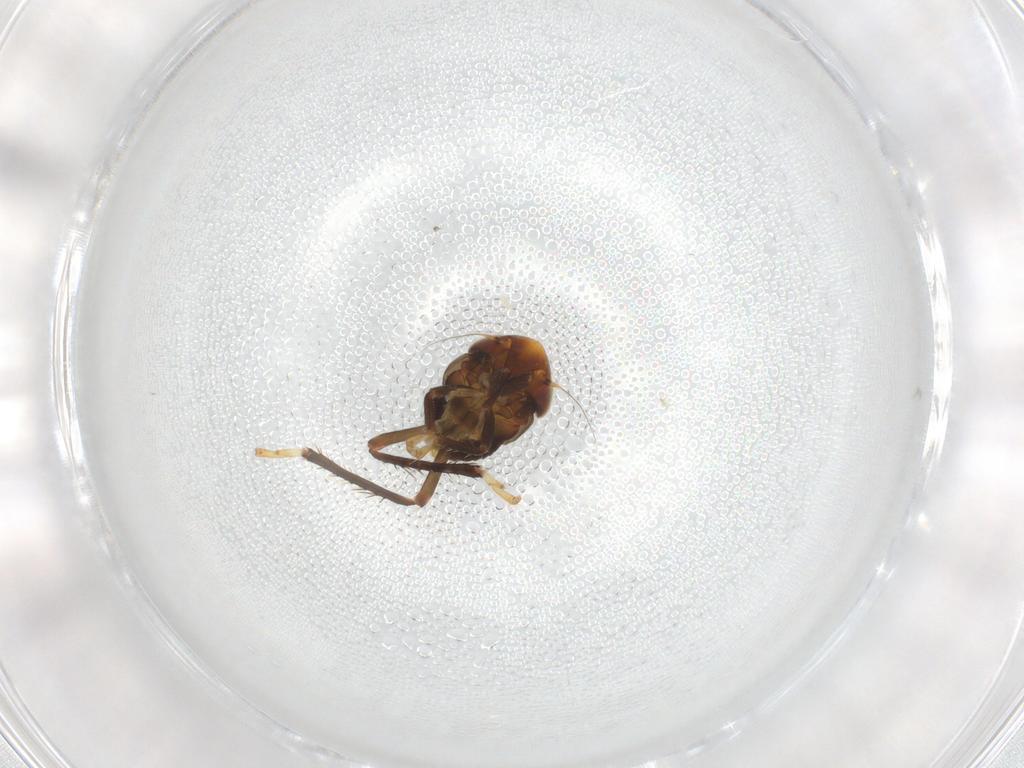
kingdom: Animalia
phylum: Arthropoda
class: Insecta
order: Hemiptera
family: Cicadellidae
